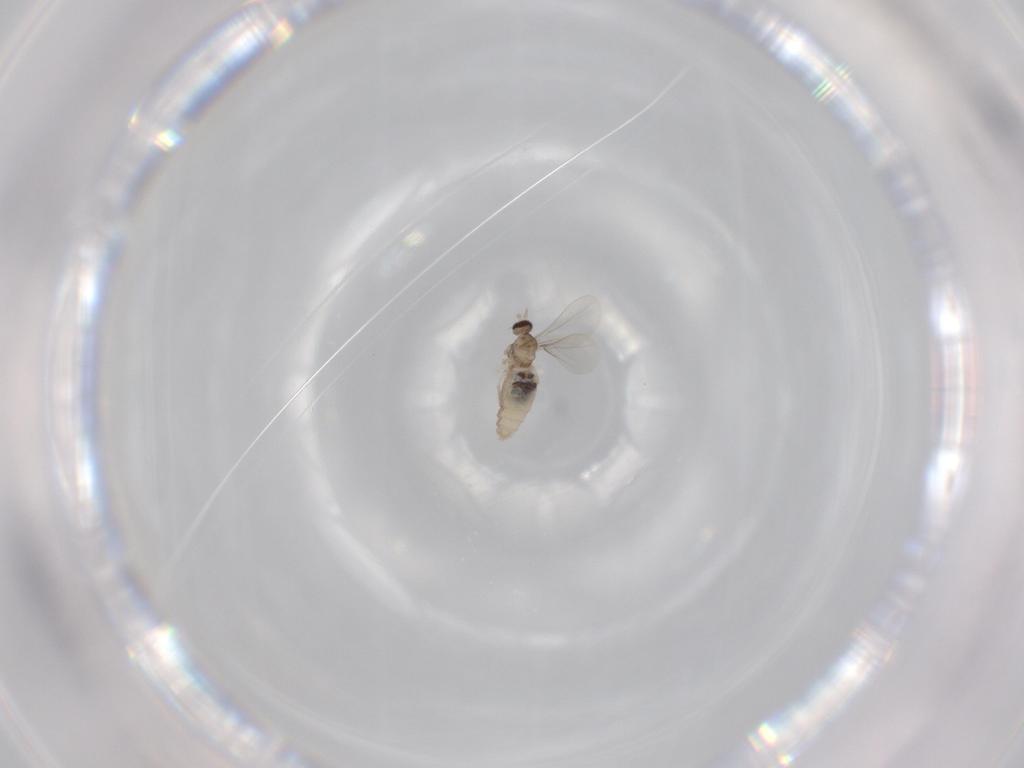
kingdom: Animalia
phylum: Arthropoda
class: Insecta
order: Diptera
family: Cecidomyiidae
